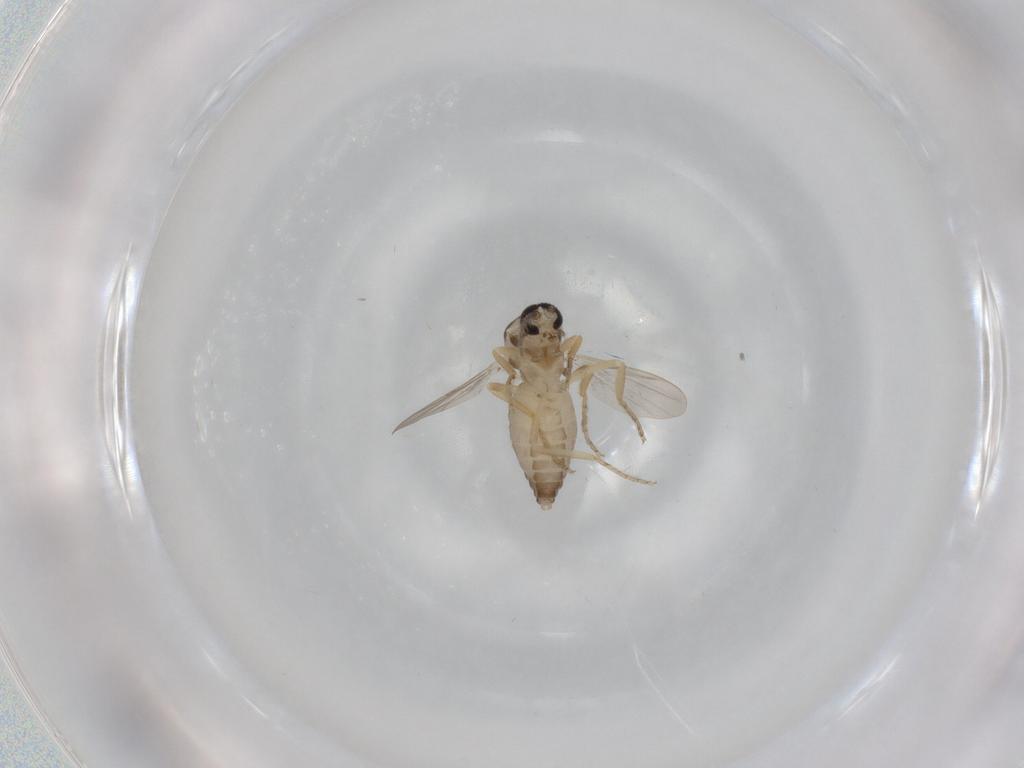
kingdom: Animalia
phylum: Arthropoda
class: Insecta
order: Diptera
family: Ceratopogonidae
